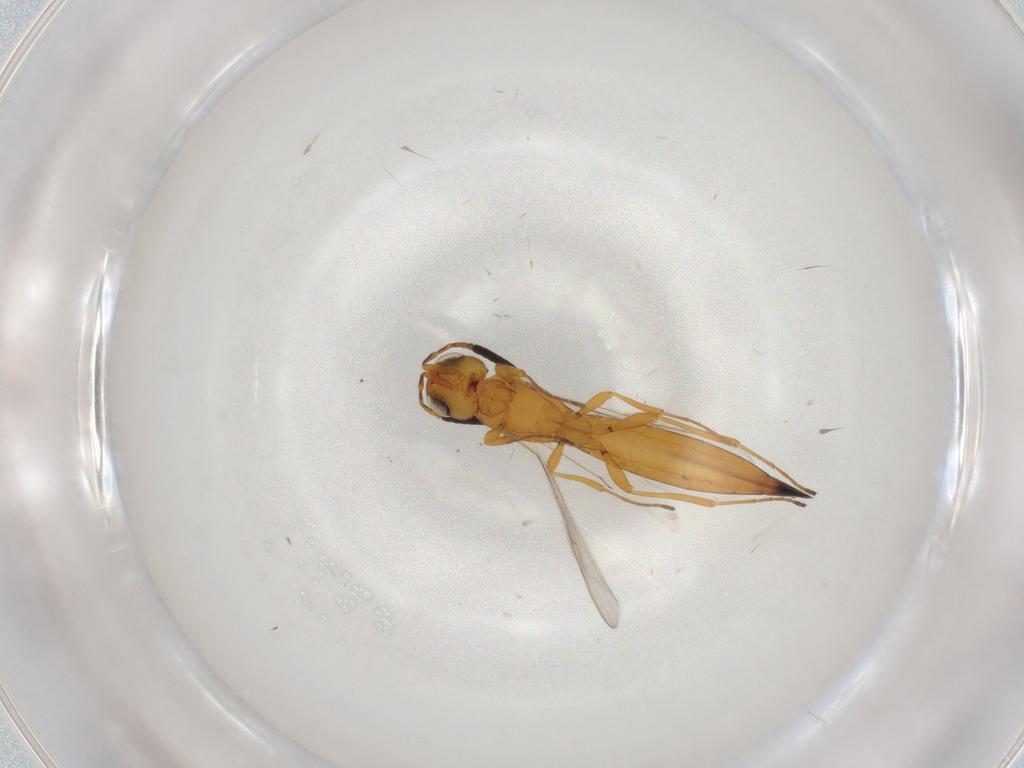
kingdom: Animalia
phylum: Arthropoda
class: Insecta
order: Hymenoptera
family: Scelionidae
